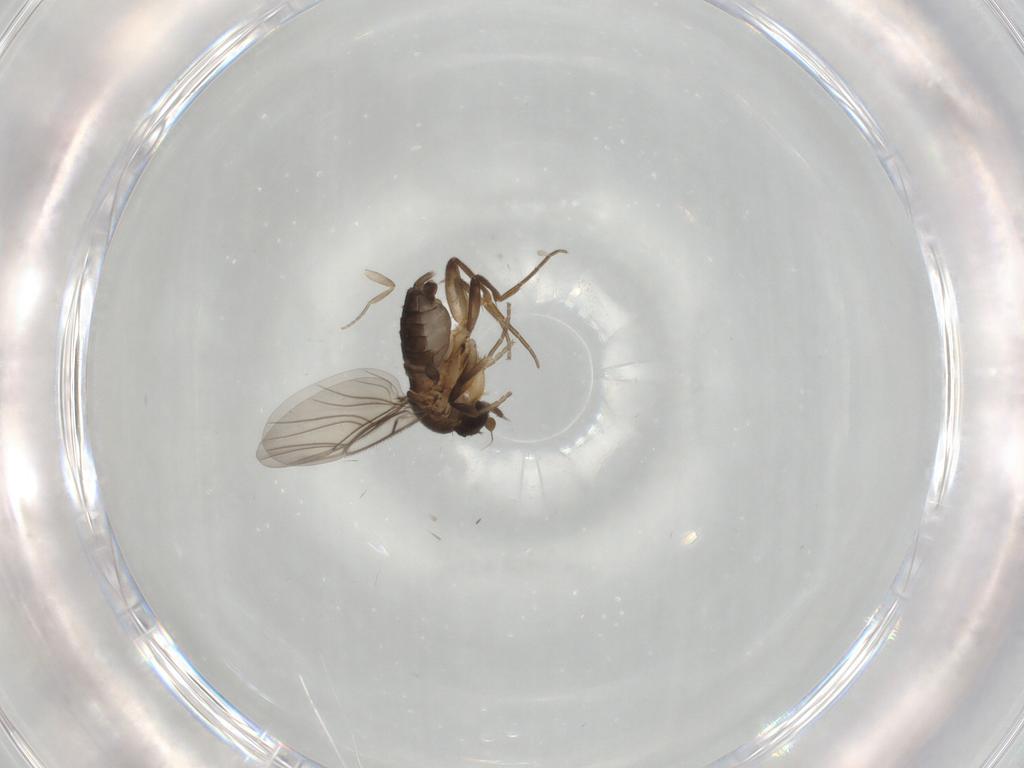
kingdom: Animalia
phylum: Arthropoda
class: Insecta
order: Diptera
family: Phoridae
